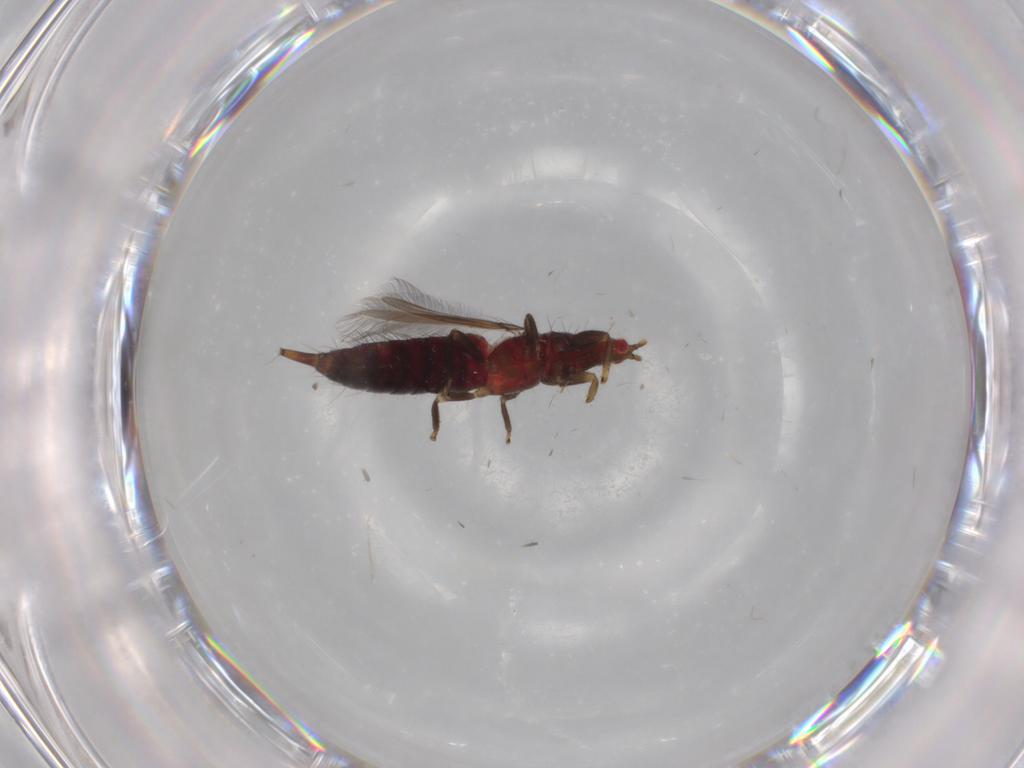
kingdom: Animalia
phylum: Arthropoda
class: Insecta
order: Thysanoptera
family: Phlaeothripidae
